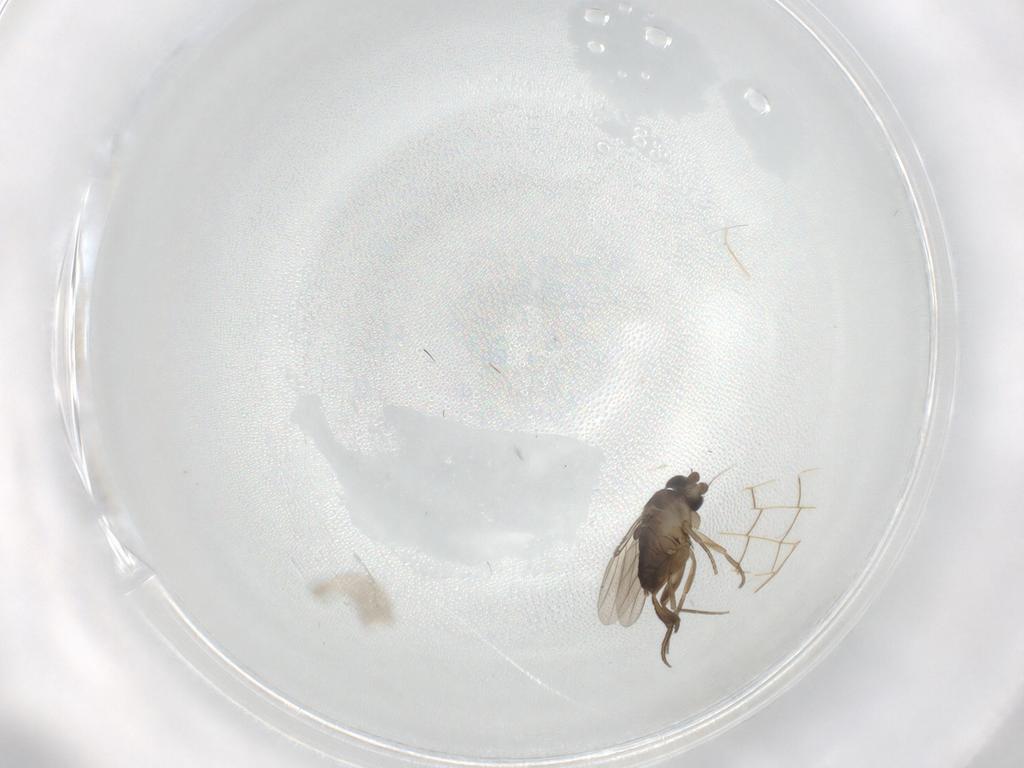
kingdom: Animalia
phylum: Arthropoda
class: Insecta
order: Diptera
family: Phoridae
